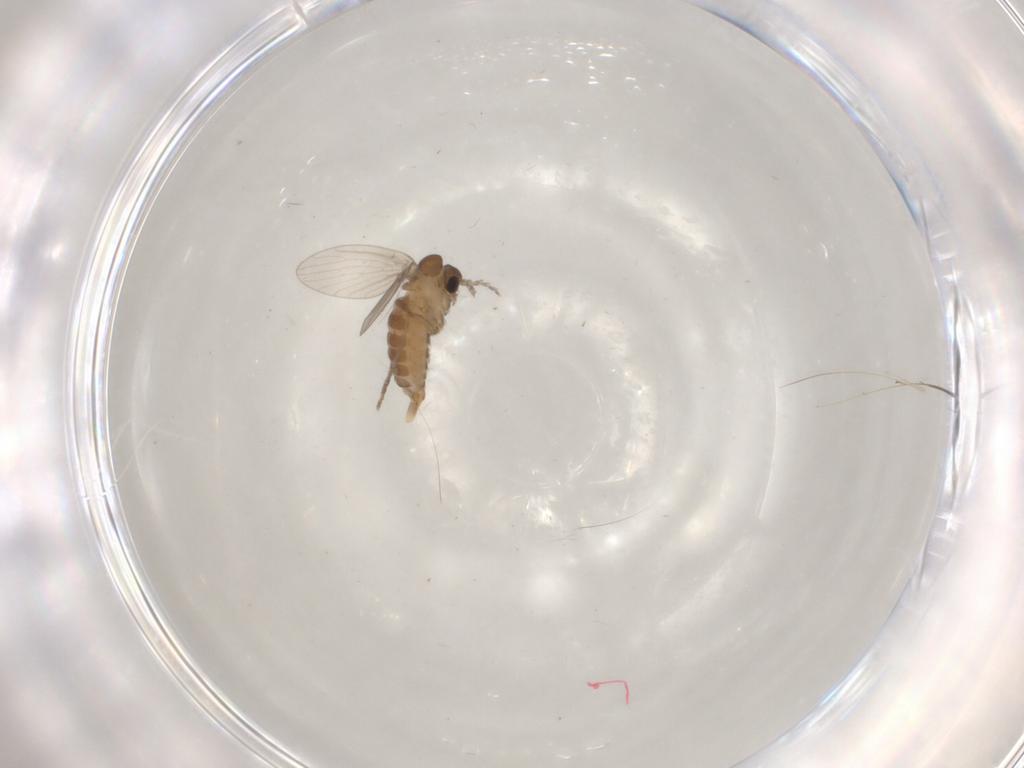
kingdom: Animalia
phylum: Arthropoda
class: Insecta
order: Diptera
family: Psychodidae
